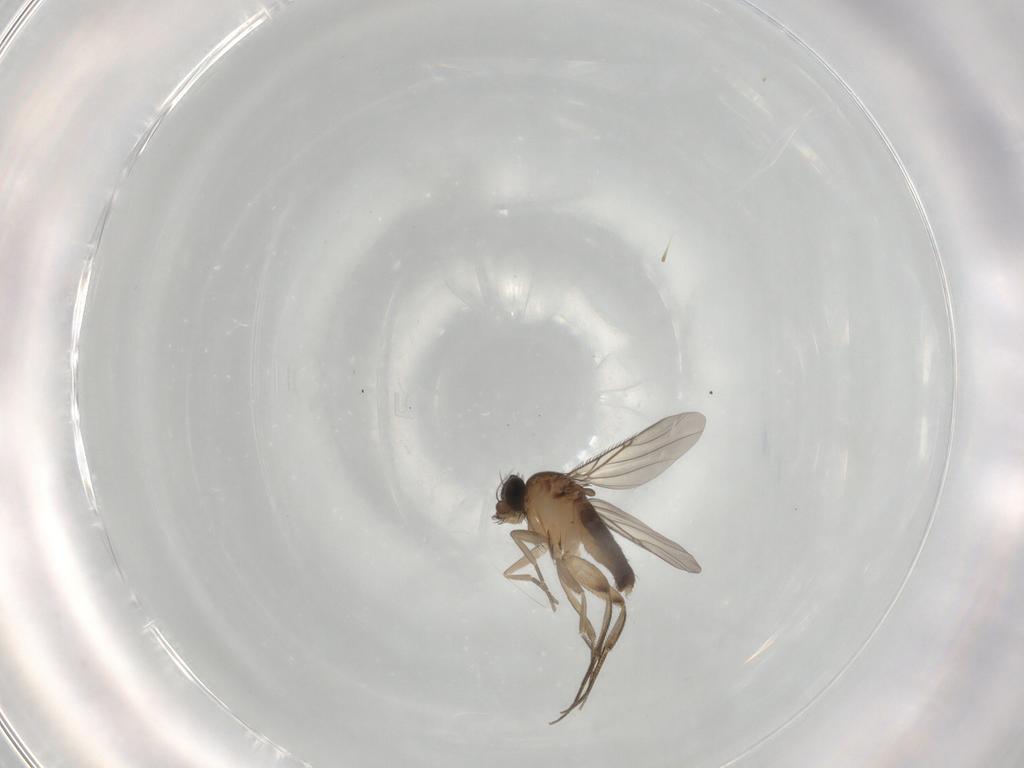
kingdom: Animalia
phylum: Arthropoda
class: Insecta
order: Diptera
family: Phoridae
